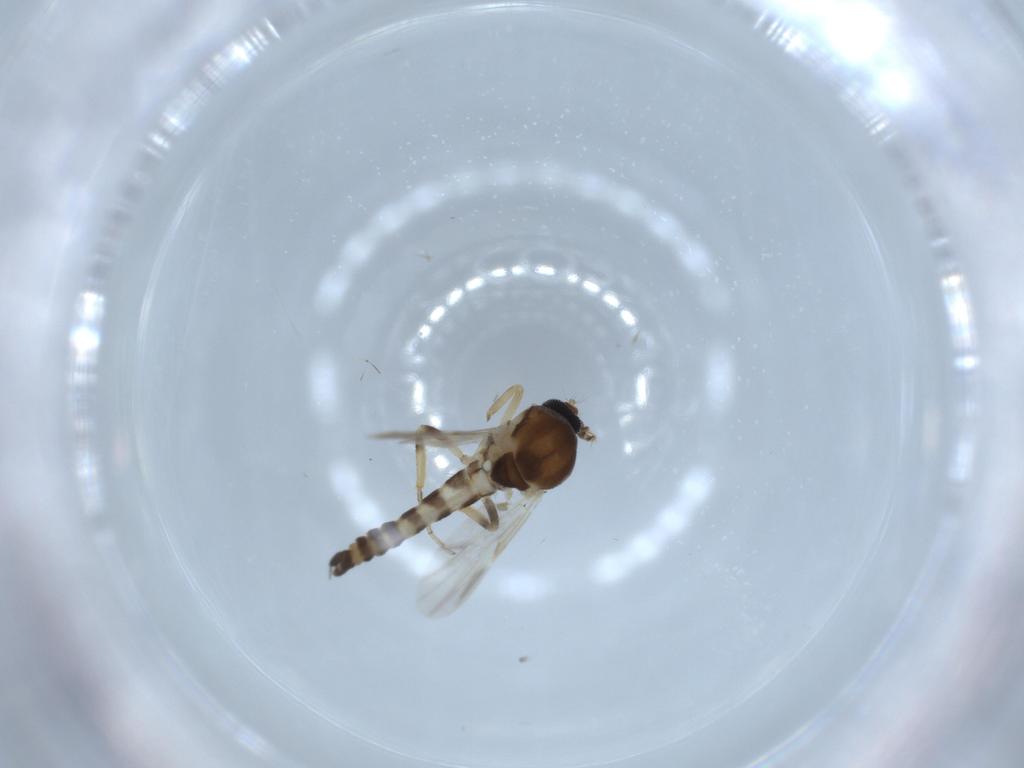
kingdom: Animalia
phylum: Arthropoda
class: Insecta
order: Diptera
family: Ceratopogonidae
